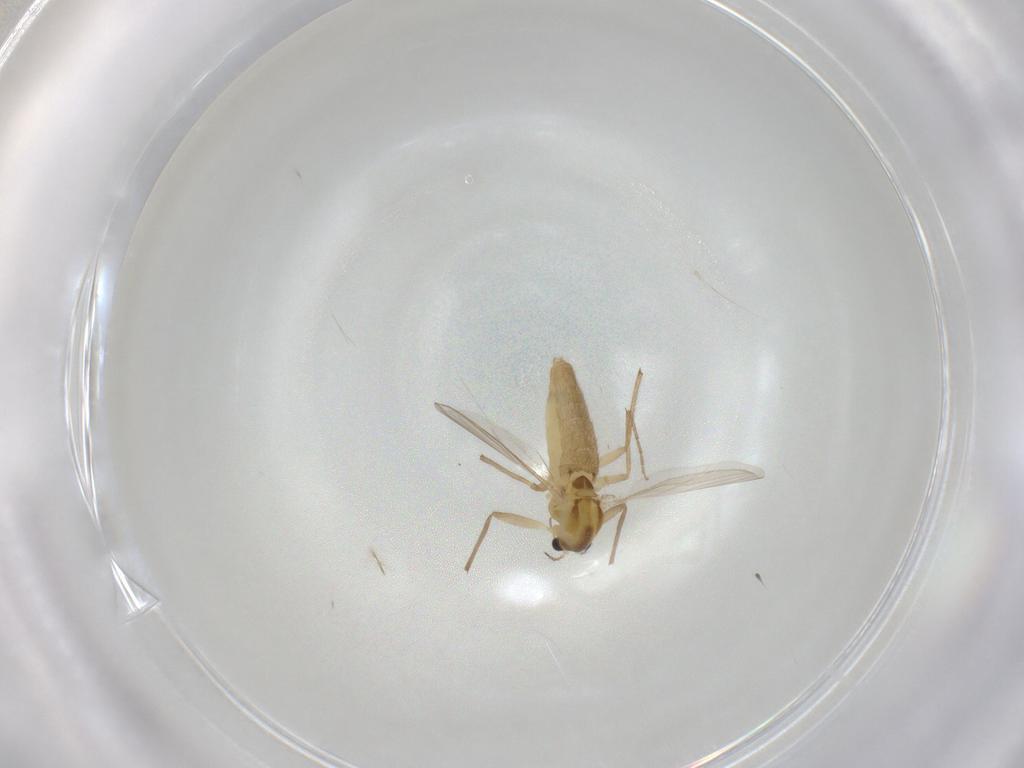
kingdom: Animalia
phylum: Arthropoda
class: Insecta
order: Diptera
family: Chironomidae
